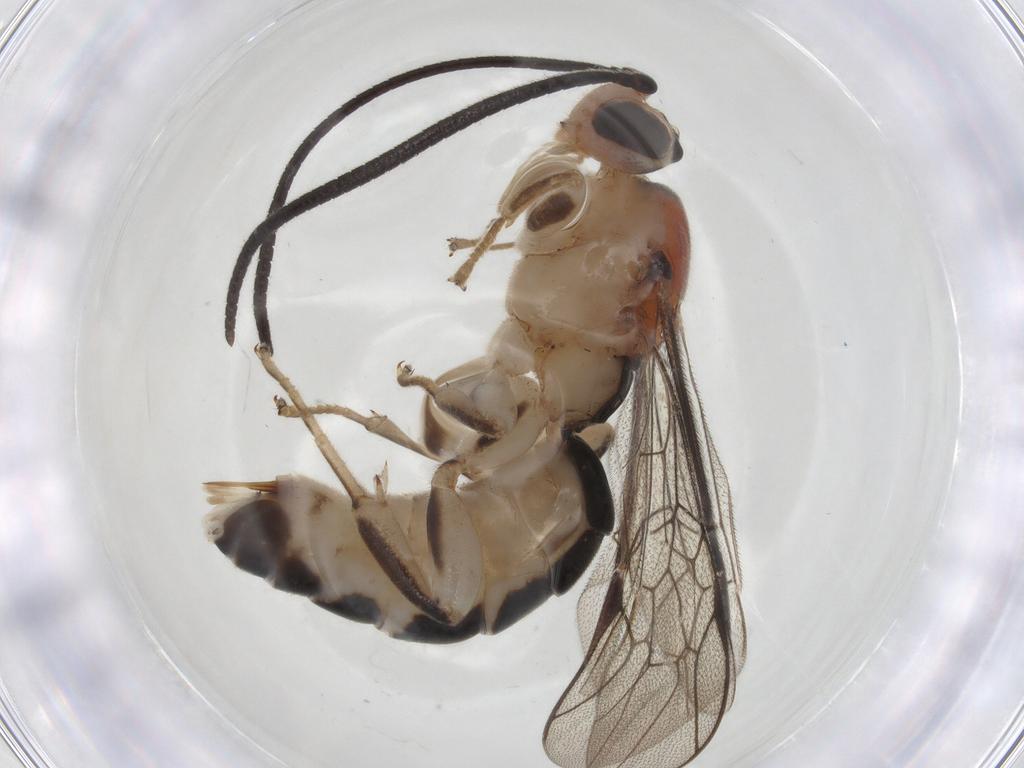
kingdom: Animalia
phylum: Arthropoda
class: Insecta
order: Hymenoptera
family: Ichneumonidae
